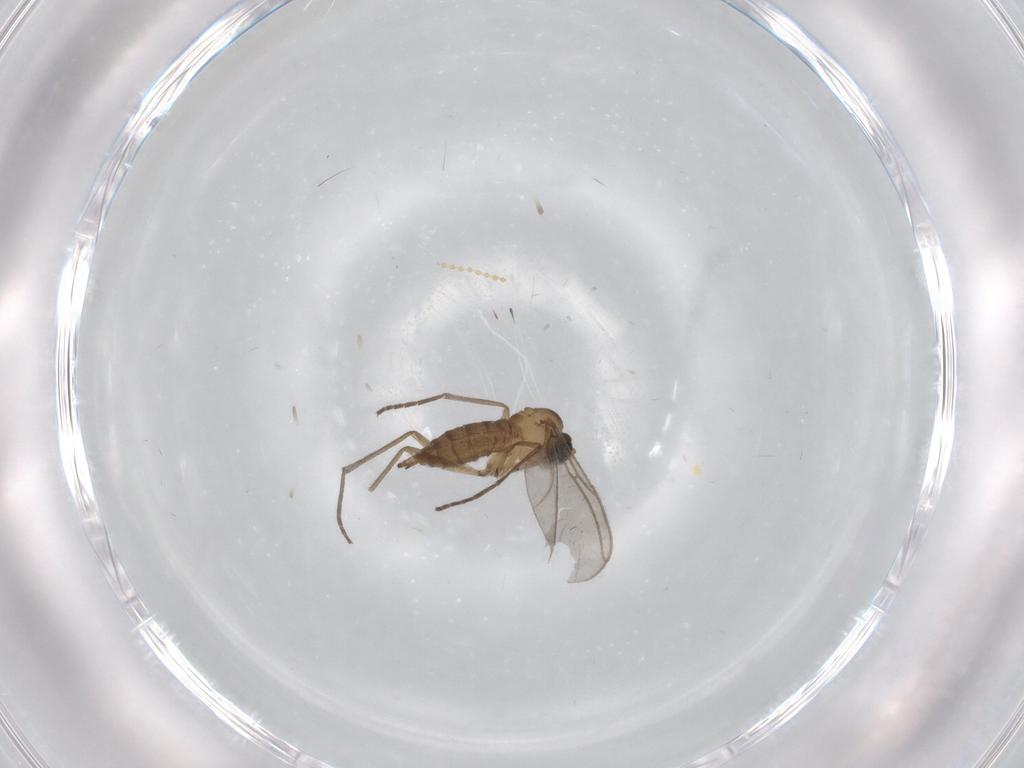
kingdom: Animalia
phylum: Arthropoda
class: Insecta
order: Diptera
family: Sciaridae
